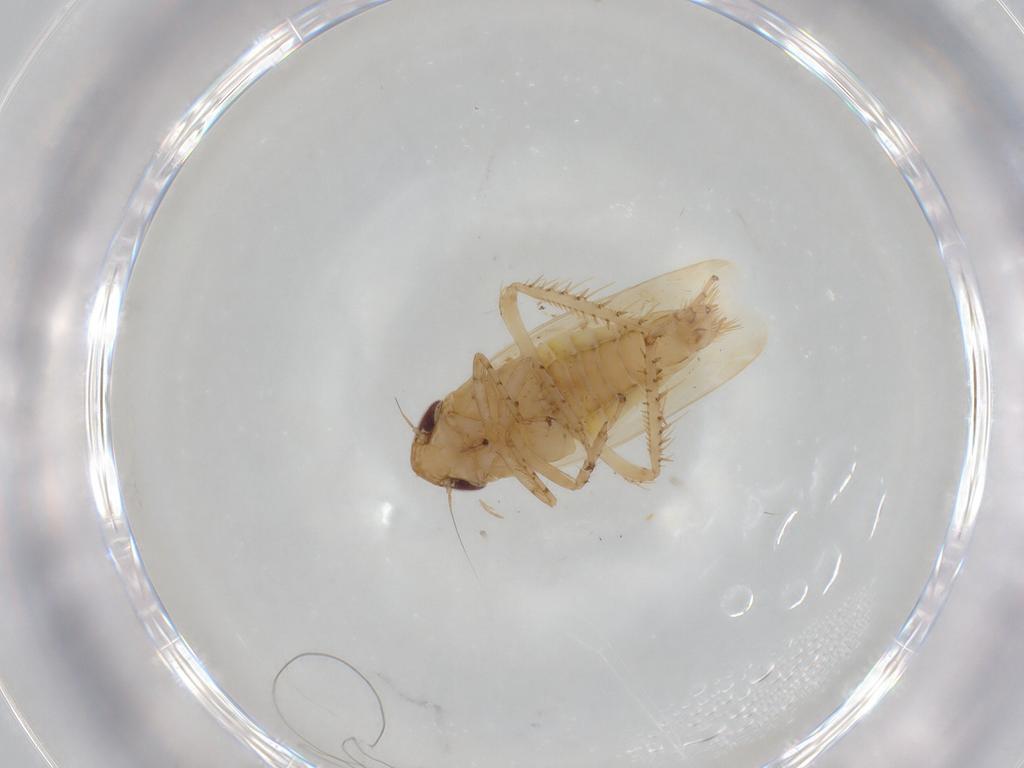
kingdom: Animalia
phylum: Arthropoda
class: Insecta
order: Hemiptera
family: Cicadellidae
